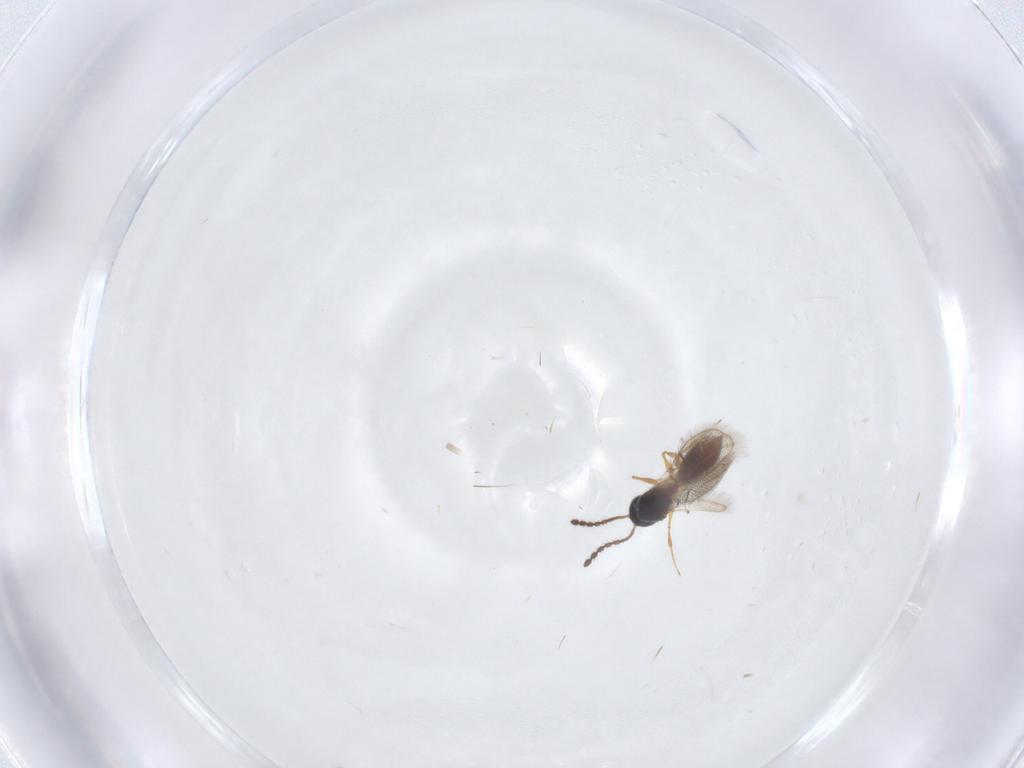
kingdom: Animalia
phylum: Arthropoda
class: Insecta
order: Hymenoptera
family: Figitidae
